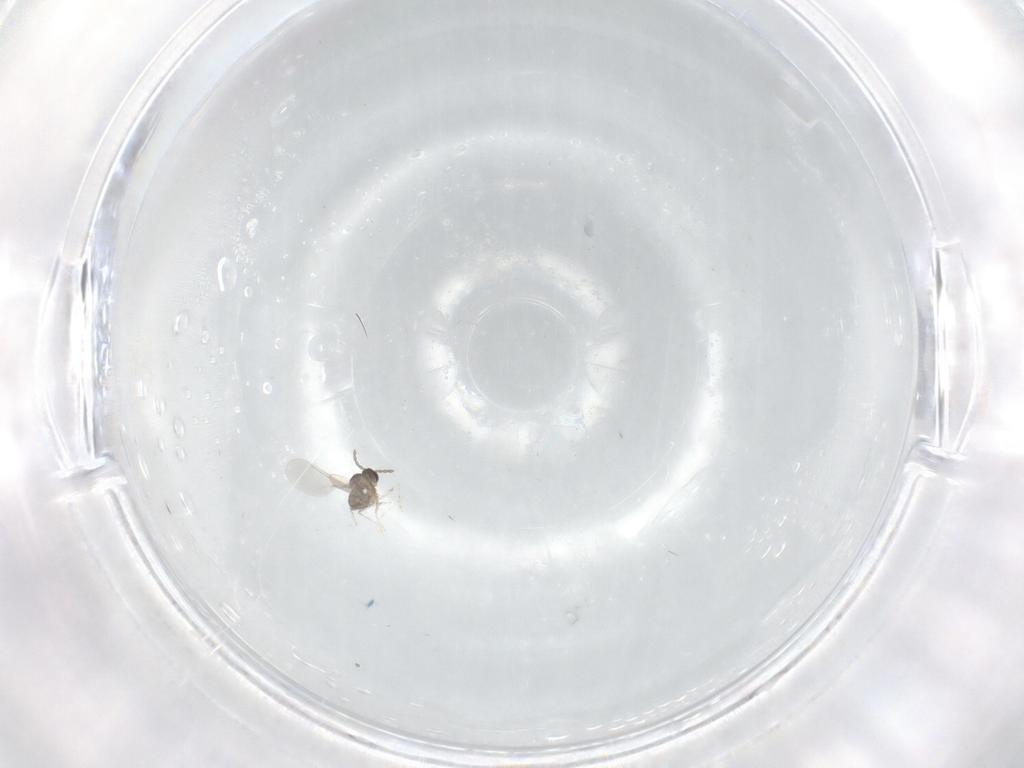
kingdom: Animalia
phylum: Arthropoda
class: Insecta
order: Diptera
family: Cecidomyiidae
